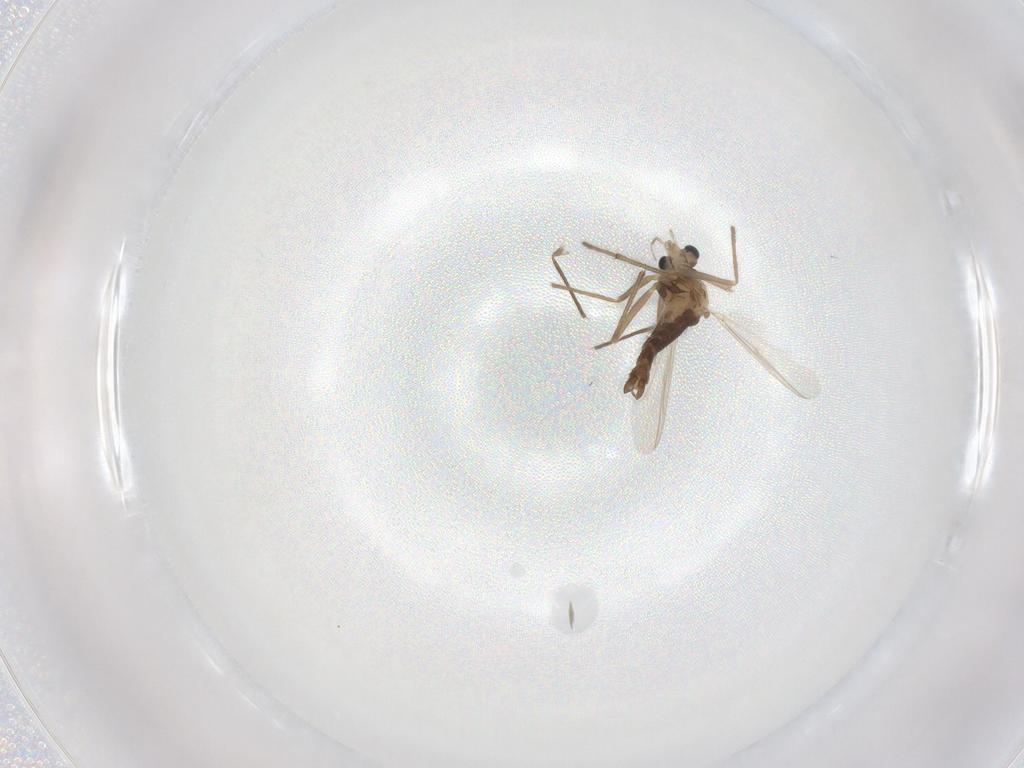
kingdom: Animalia
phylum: Arthropoda
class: Insecta
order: Diptera
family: Chironomidae
